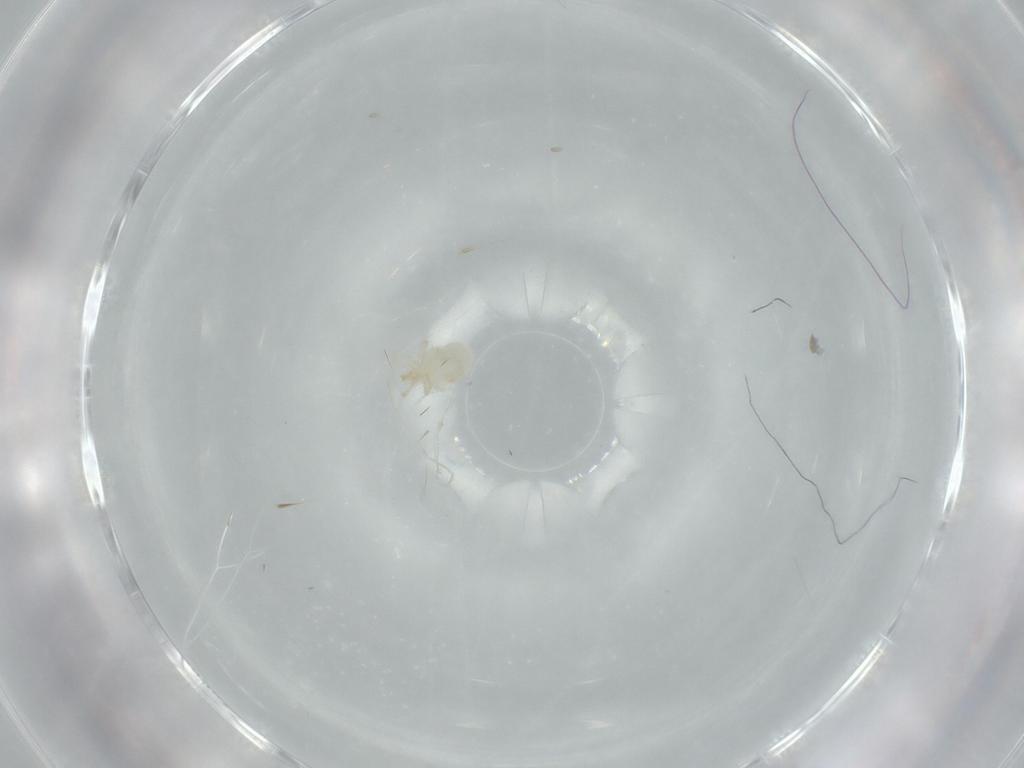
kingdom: Animalia
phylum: Arthropoda
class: Arachnida
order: Trombidiformes
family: Erythraeidae
